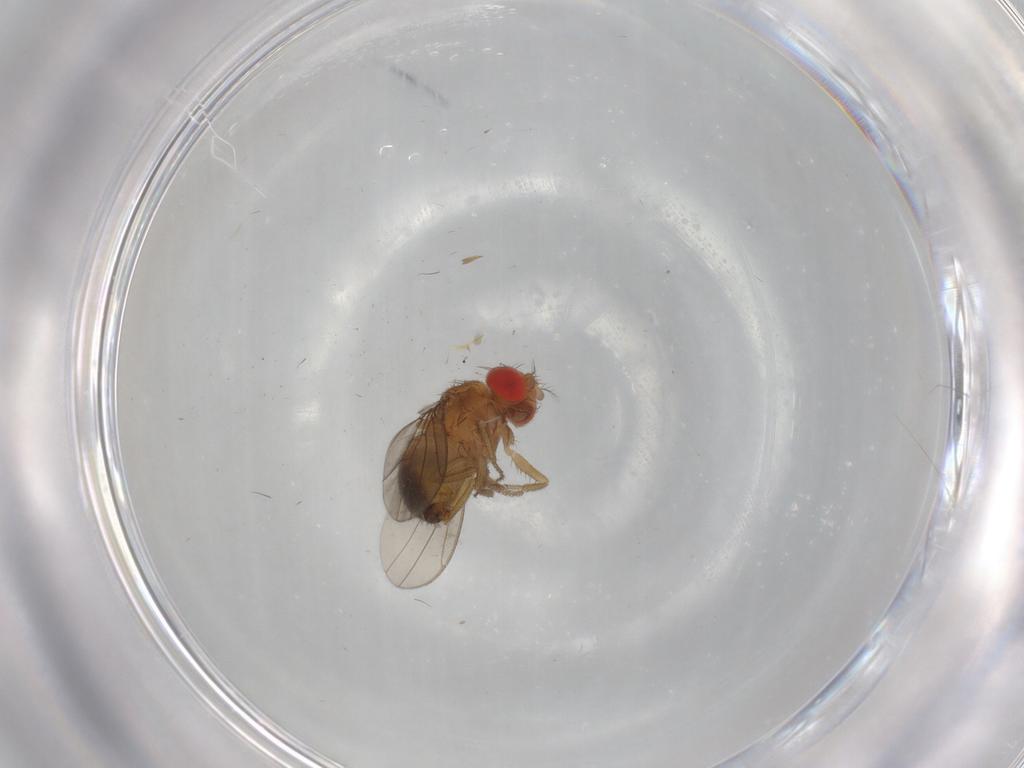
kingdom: Animalia
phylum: Arthropoda
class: Insecta
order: Diptera
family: Drosophilidae
